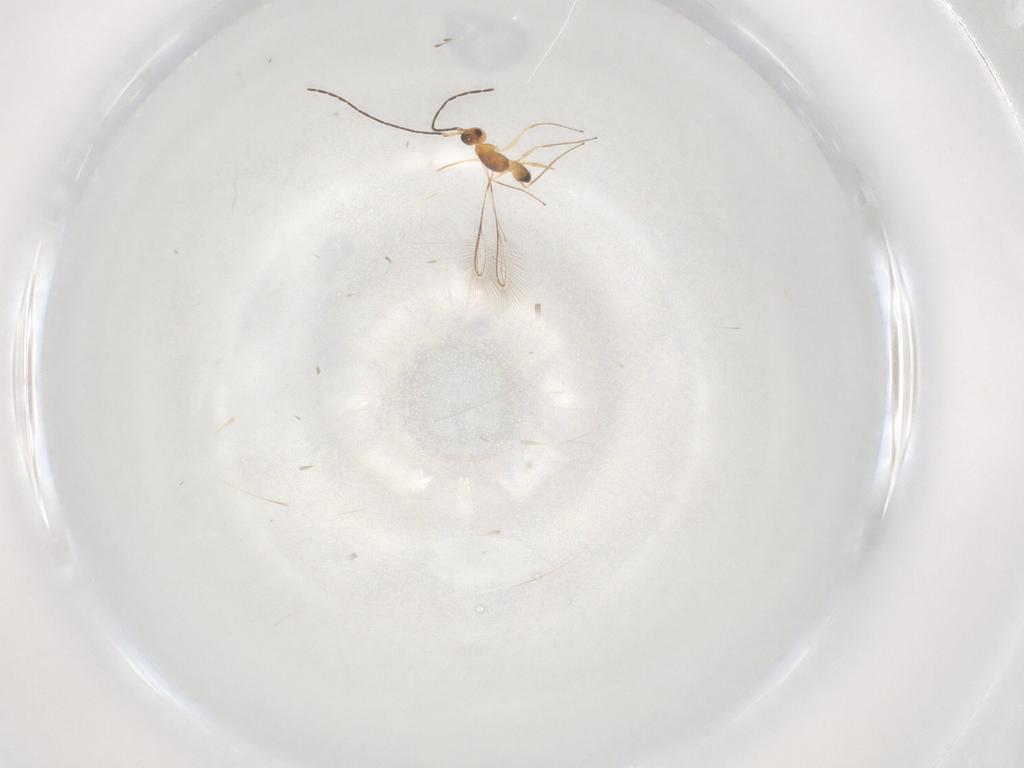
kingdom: Animalia
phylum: Arthropoda
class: Insecta
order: Hymenoptera
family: Mymaridae
